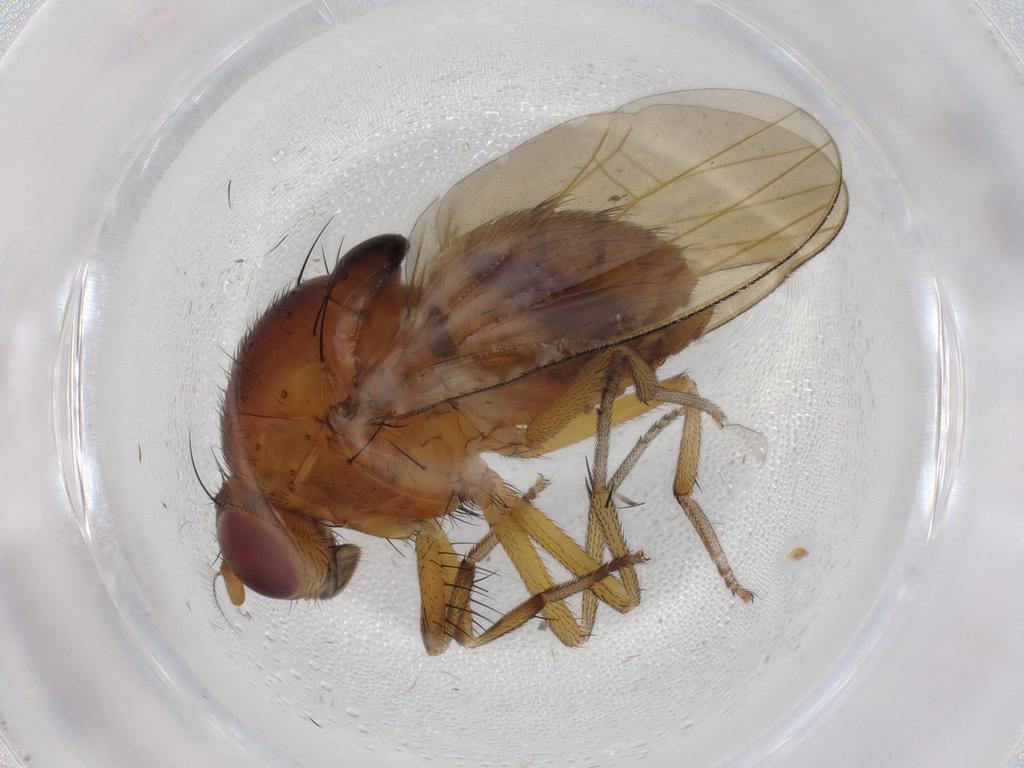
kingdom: Animalia
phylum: Arthropoda
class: Insecta
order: Diptera
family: Lauxaniidae
